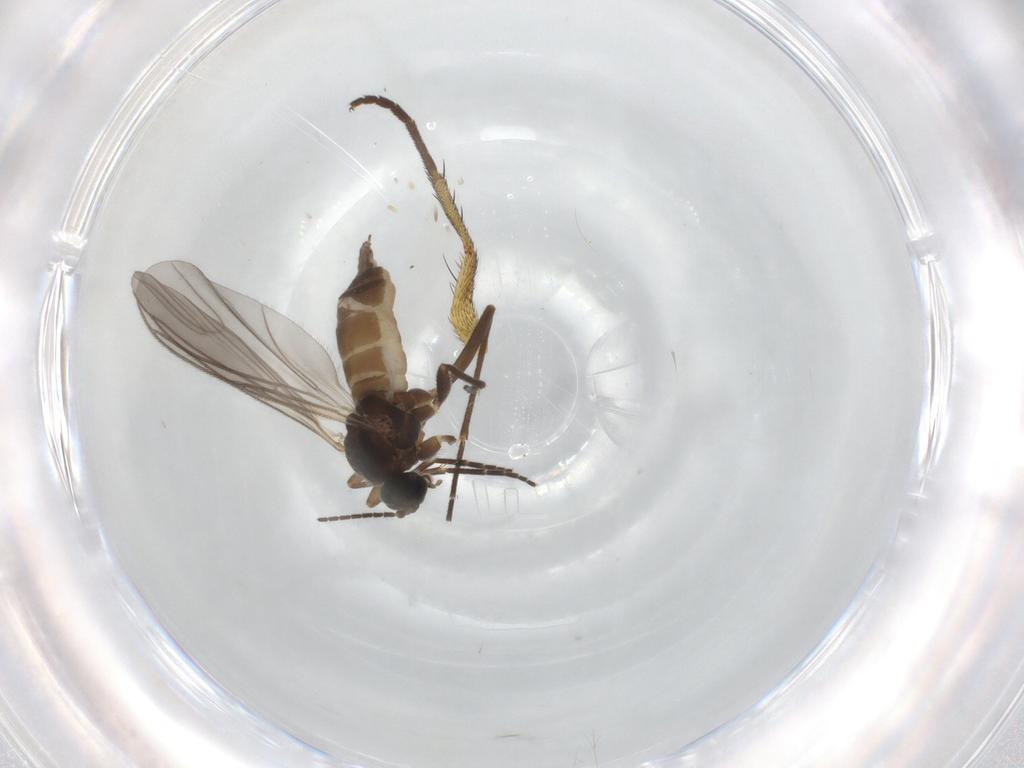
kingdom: Animalia
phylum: Arthropoda
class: Insecta
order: Diptera
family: Sciaridae
